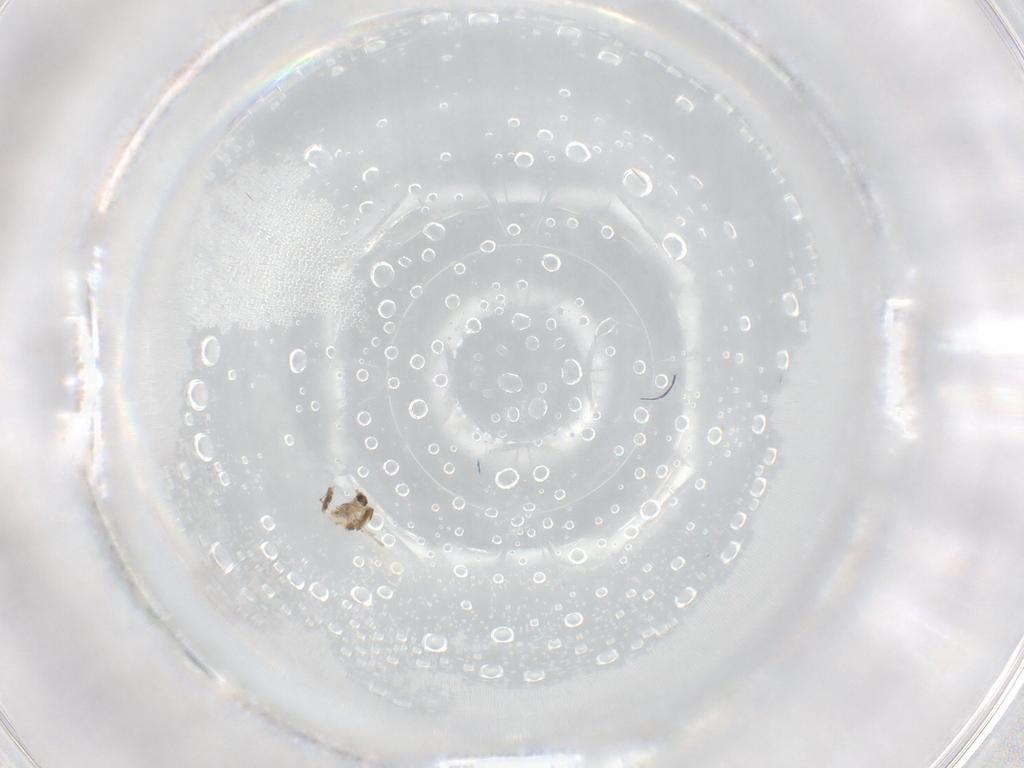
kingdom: Animalia
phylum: Arthropoda
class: Insecta
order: Diptera
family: Chironomidae
